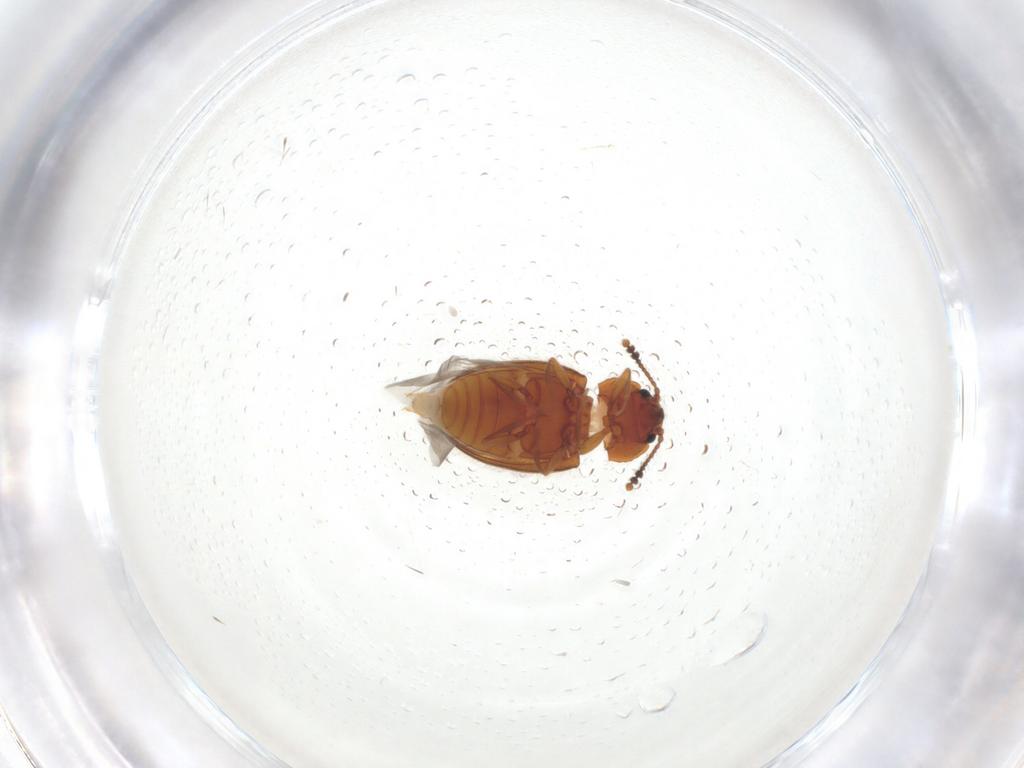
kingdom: Animalia
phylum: Arthropoda
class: Insecta
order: Coleoptera
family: Erotylidae
